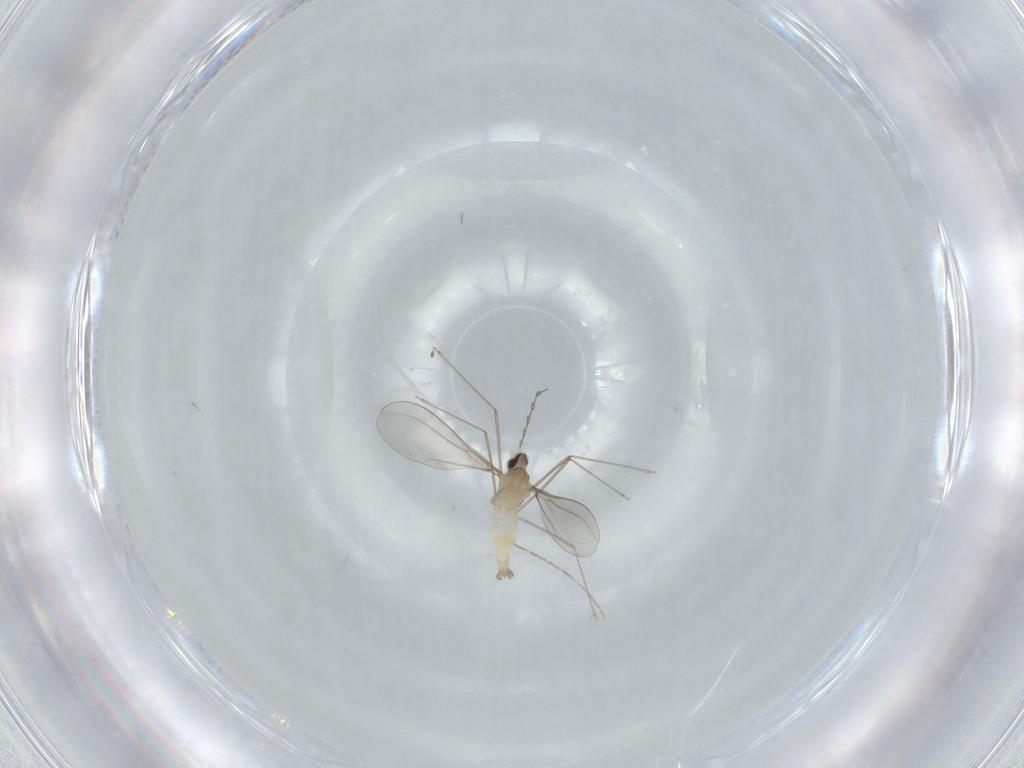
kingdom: Animalia
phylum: Arthropoda
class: Insecta
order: Diptera
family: Cecidomyiidae
